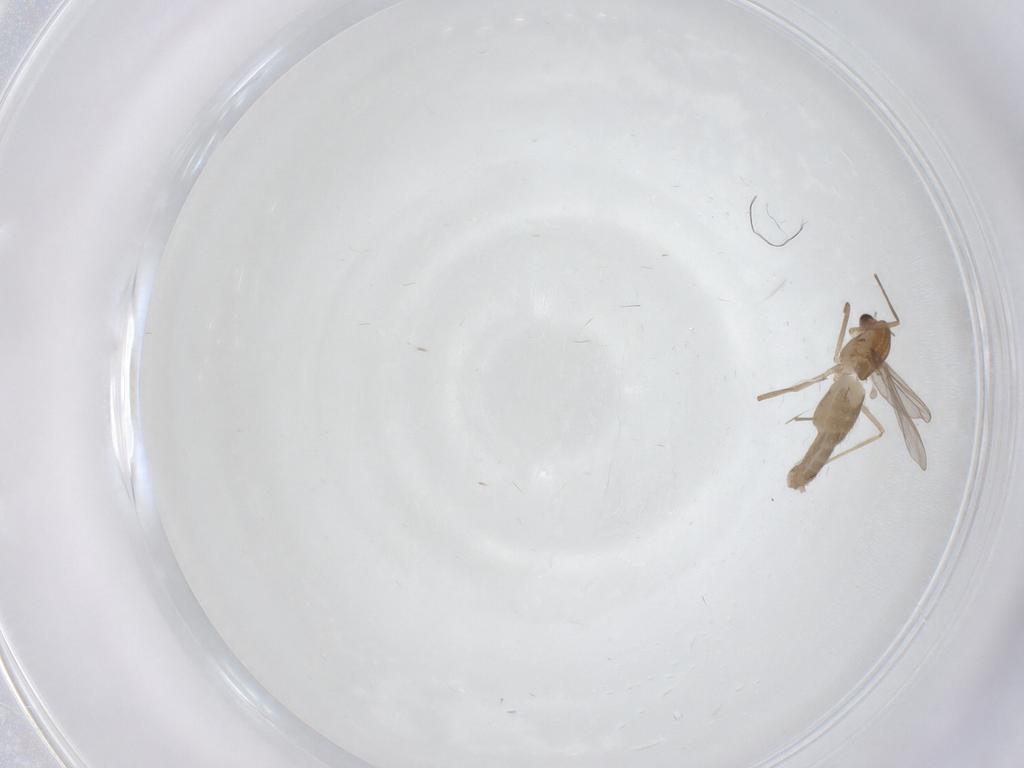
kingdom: Animalia
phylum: Arthropoda
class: Insecta
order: Diptera
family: Chironomidae
